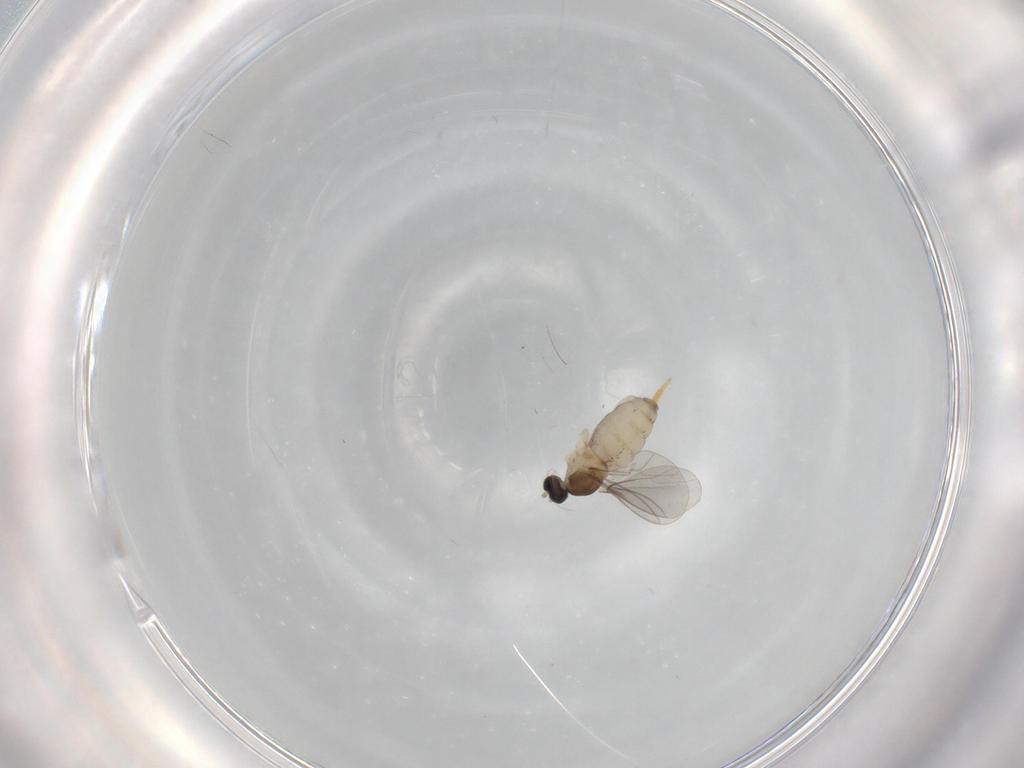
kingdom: Animalia
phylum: Arthropoda
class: Insecta
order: Diptera
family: Cecidomyiidae
